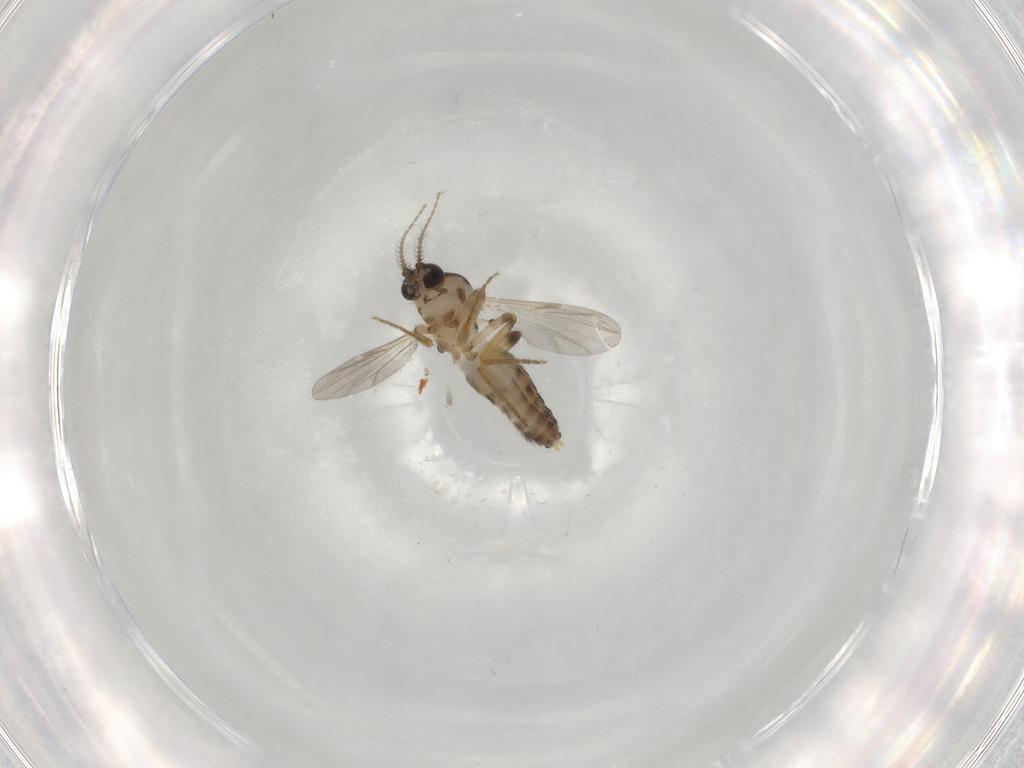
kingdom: Animalia
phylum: Arthropoda
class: Insecta
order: Diptera
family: Ceratopogonidae
